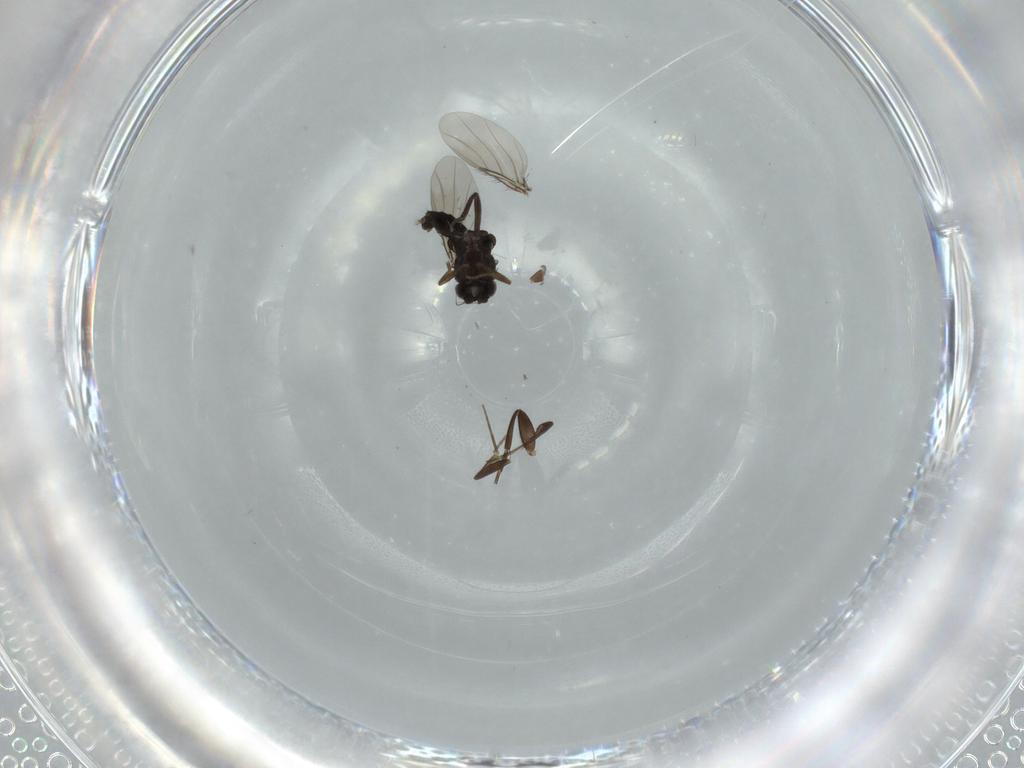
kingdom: Animalia
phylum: Arthropoda
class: Insecta
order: Diptera
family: Cecidomyiidae
